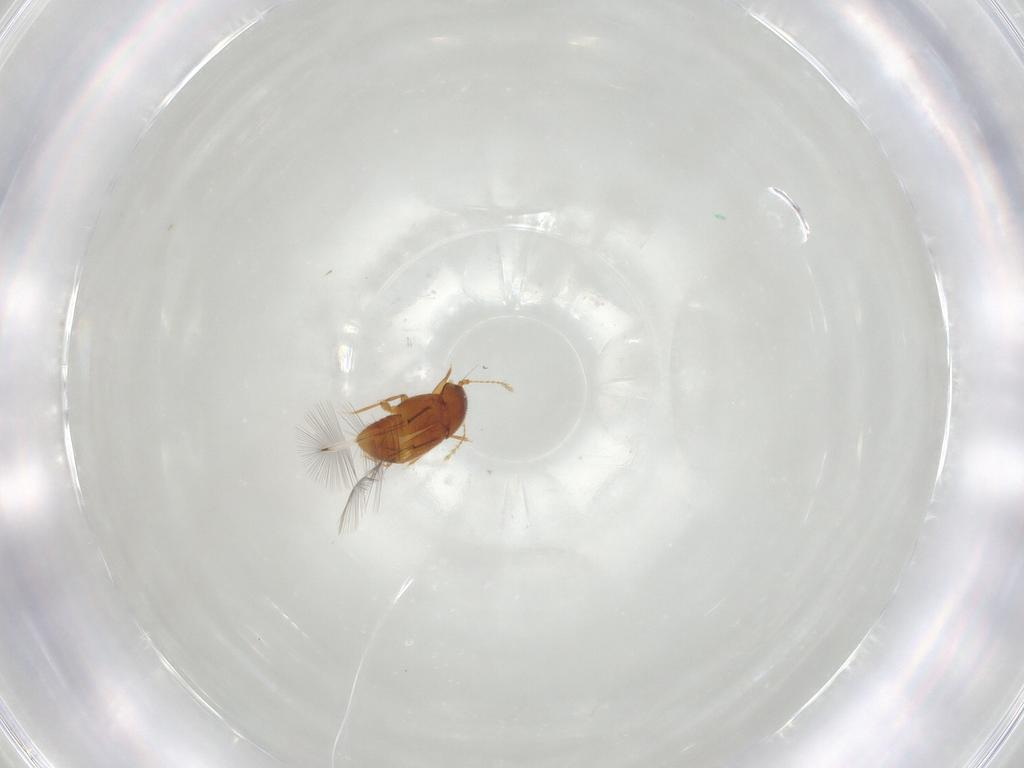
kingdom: Animalia
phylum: Arthropoda
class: Insecta
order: Coleoptera
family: Ptiliidae
